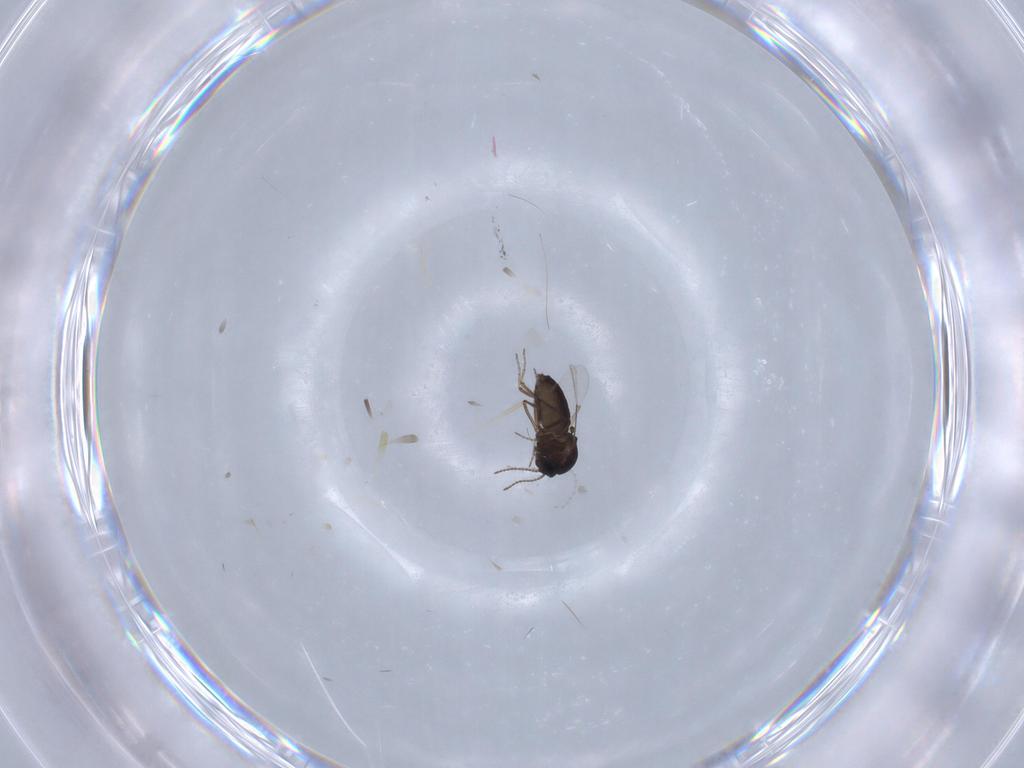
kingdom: Animalia
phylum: Arthropoda
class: Insecta
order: Diptera
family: Ceratopogonidae
